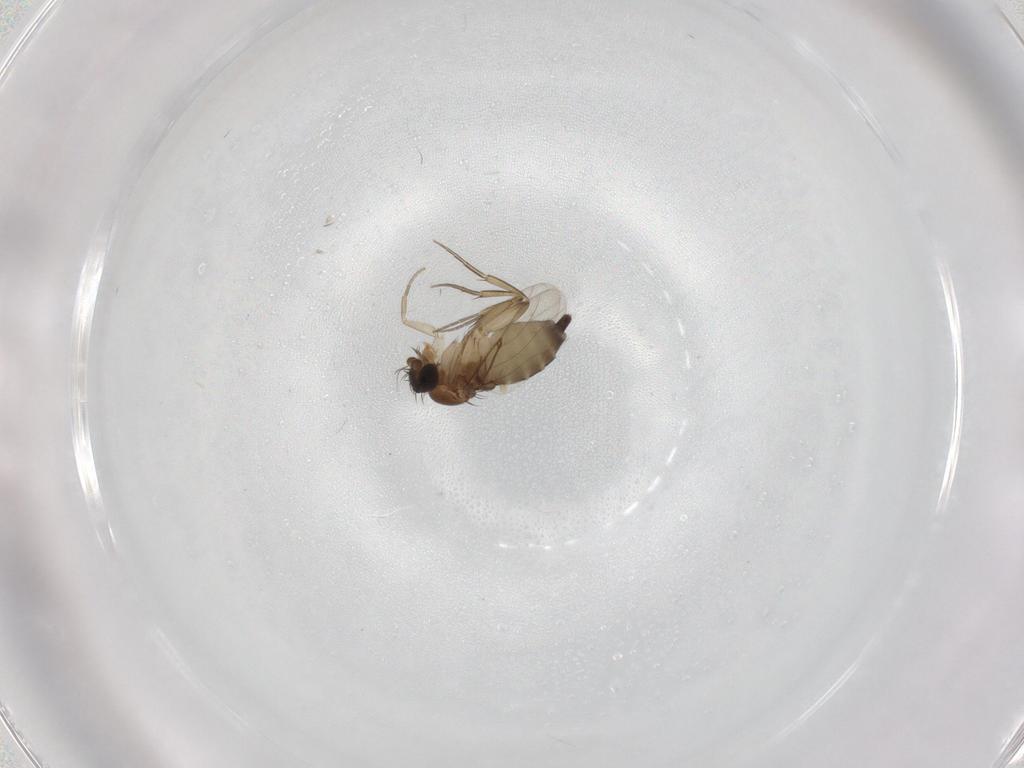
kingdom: Animalia
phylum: Arthropoda
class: Insecta
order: Diptera
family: Phoridae
